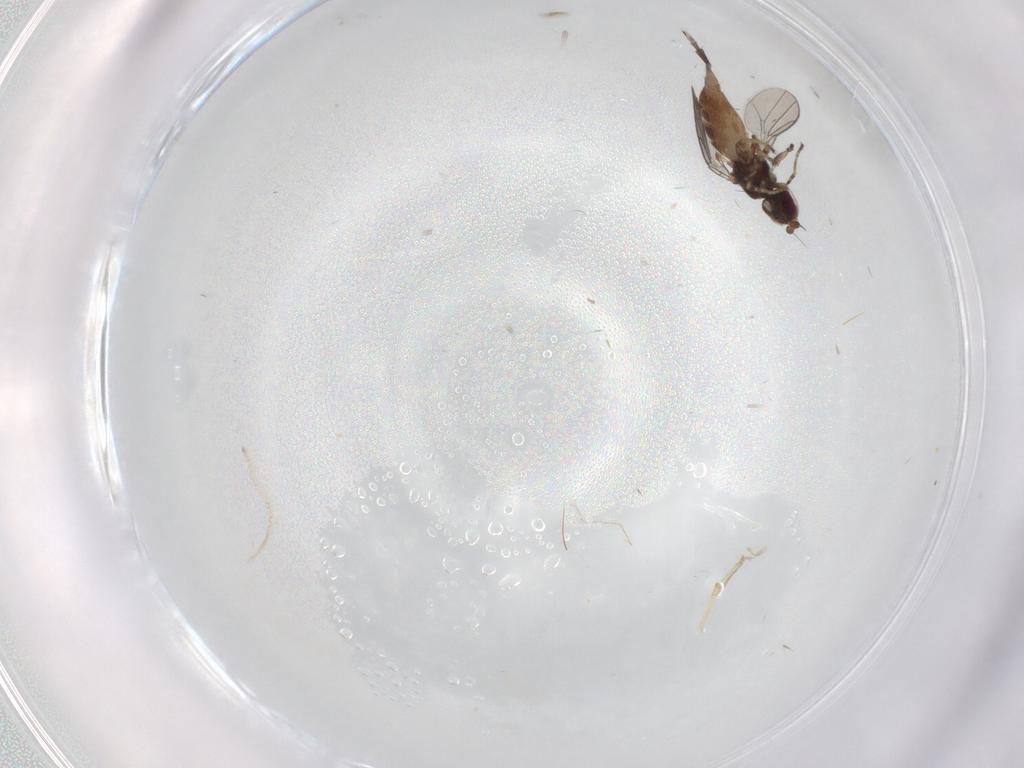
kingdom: Animalia
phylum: Arthropoda
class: Insecta
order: Diptera
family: Chloropidae
